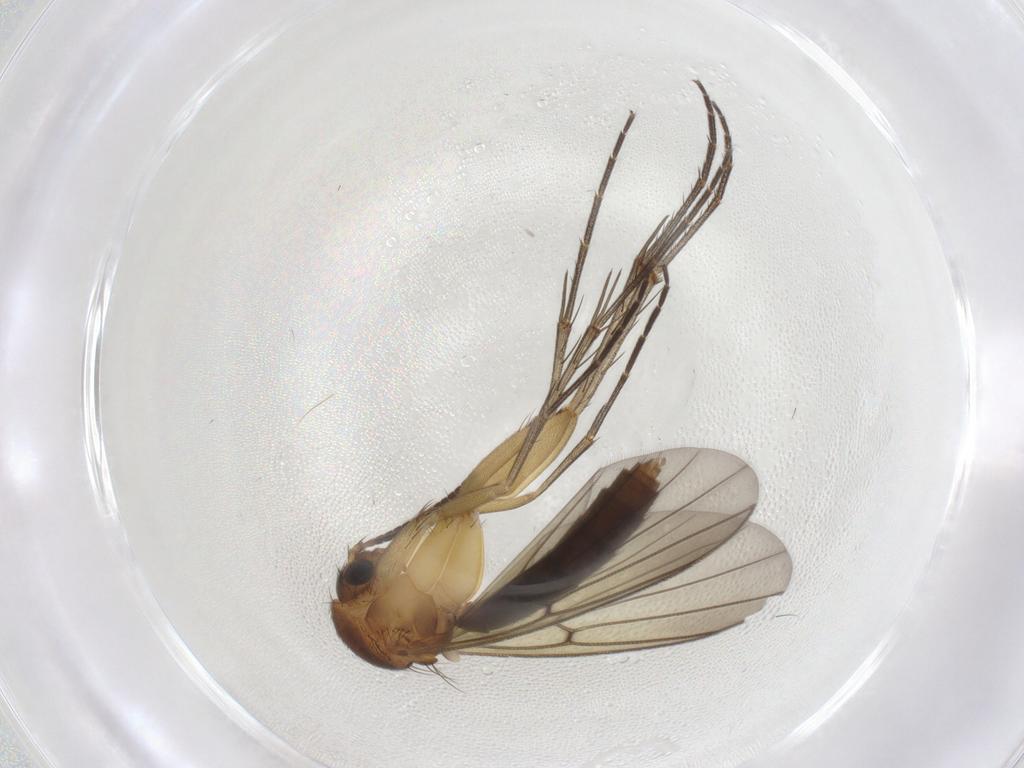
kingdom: Animalia
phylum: Arthropoda
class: Insecta
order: Diptera
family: Mycetophilidae
